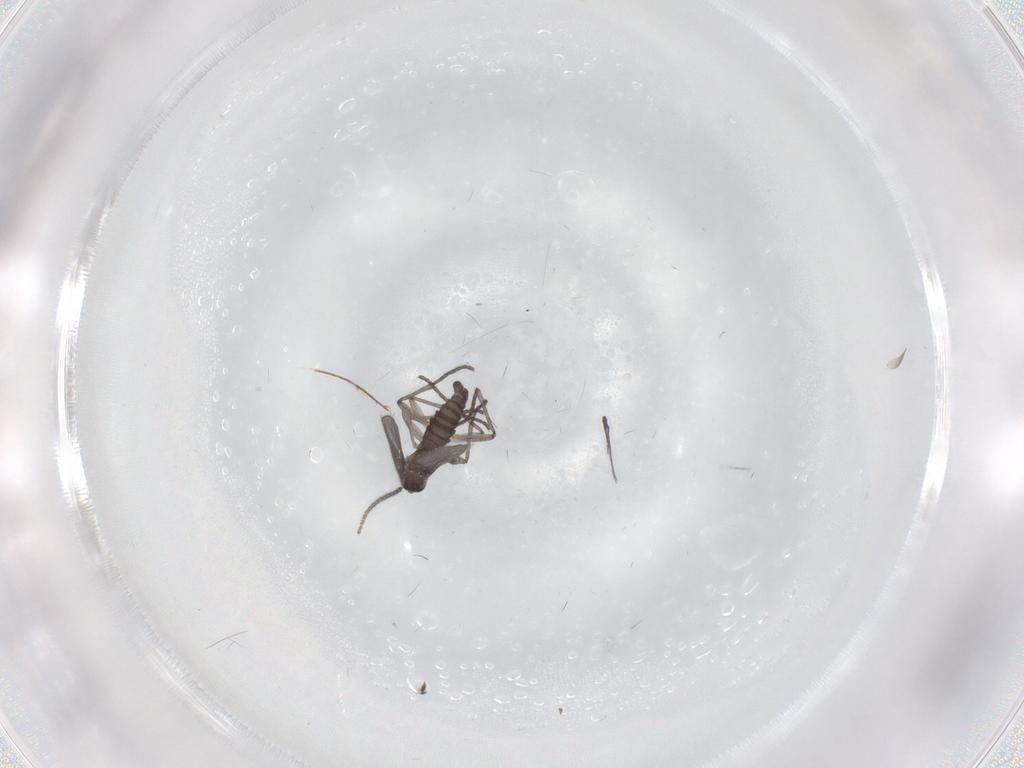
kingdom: Animalia
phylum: Arthropoda
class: Insecta
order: Diptera
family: Sciaridae
